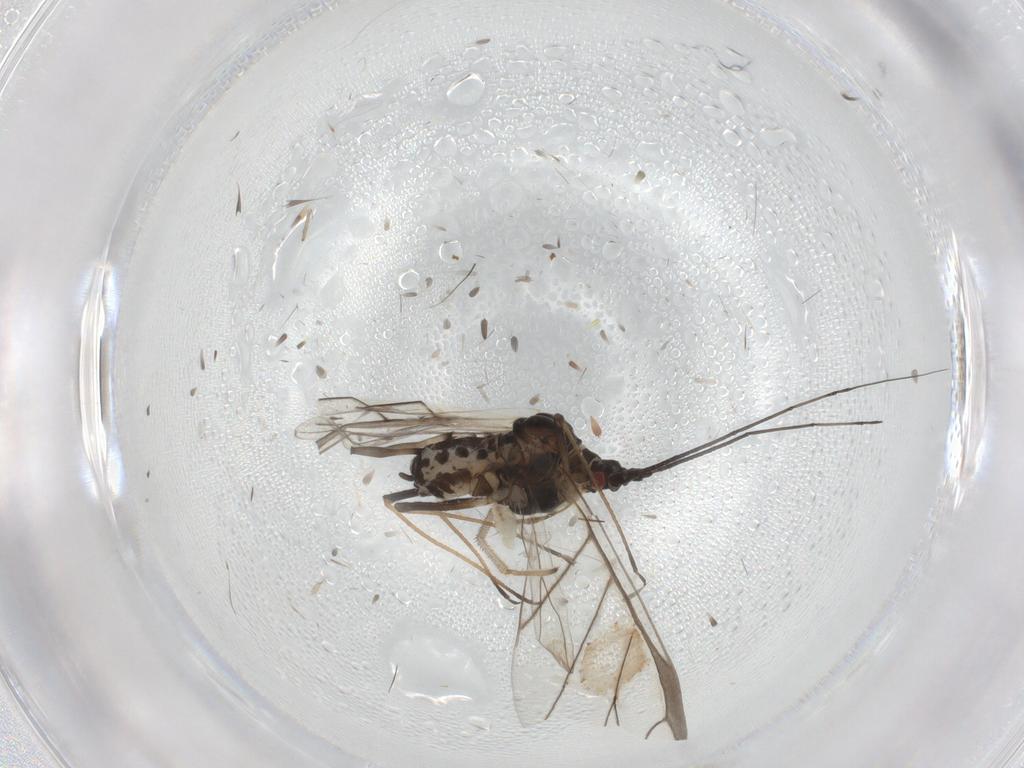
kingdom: Animalia
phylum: Arthropoda
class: Insecta
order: Hemiptera
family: Aphididae
